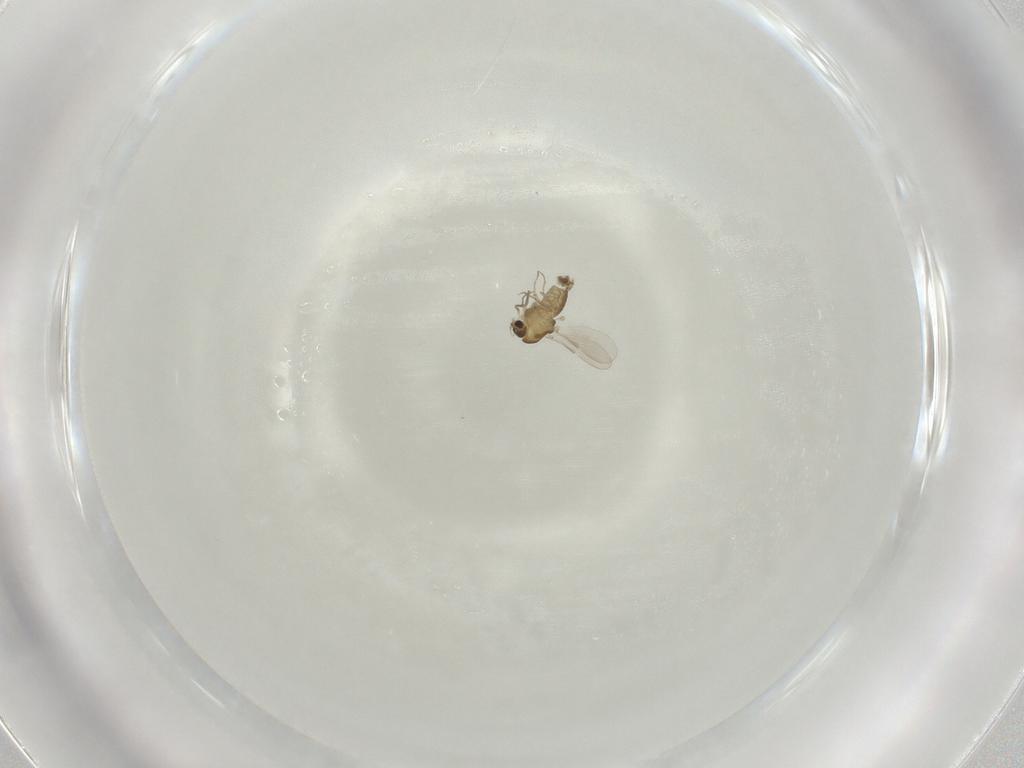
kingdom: Animalia
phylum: Arthropoda
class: Insecta
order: Diptera
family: Chironomidae
